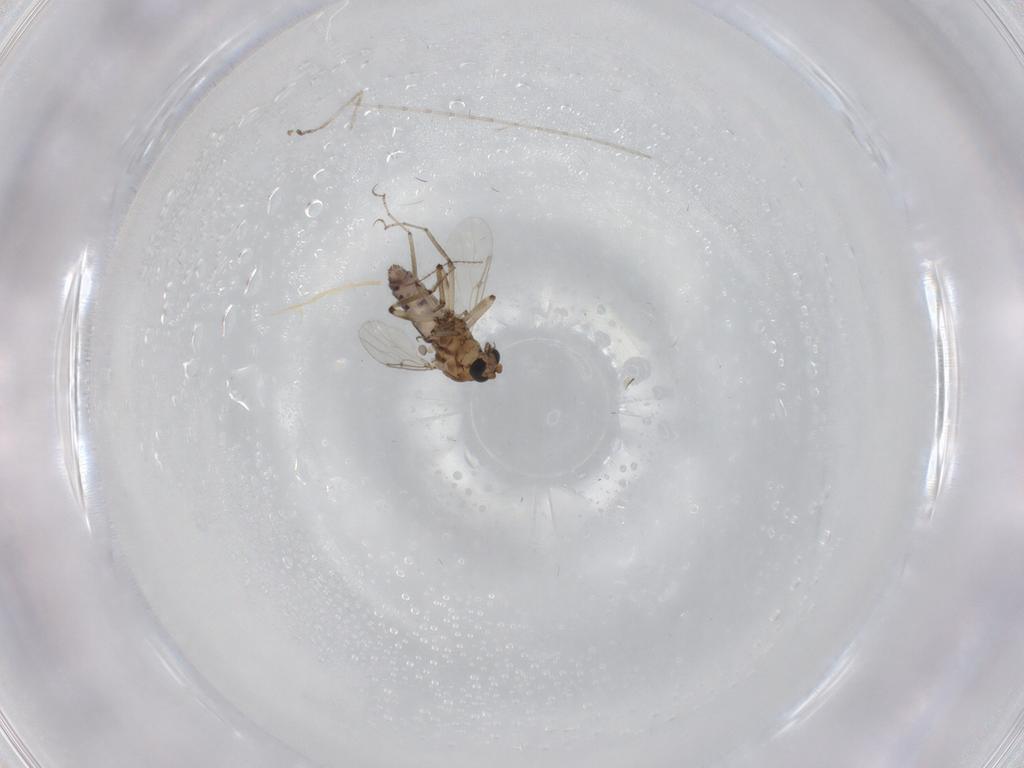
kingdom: Animalia
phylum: Arthropoda
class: Insecta
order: Diptera
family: Ceratopogonidae
